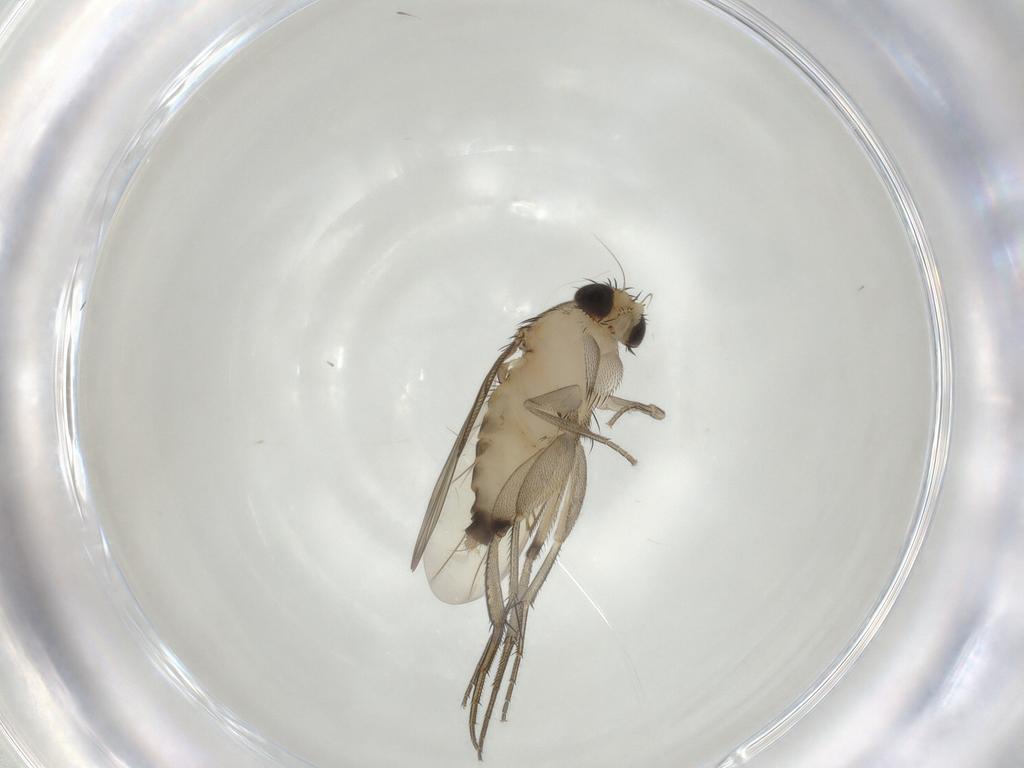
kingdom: Animalia
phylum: Arthropoda
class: Insecta
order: Diptera
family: Phoridae
